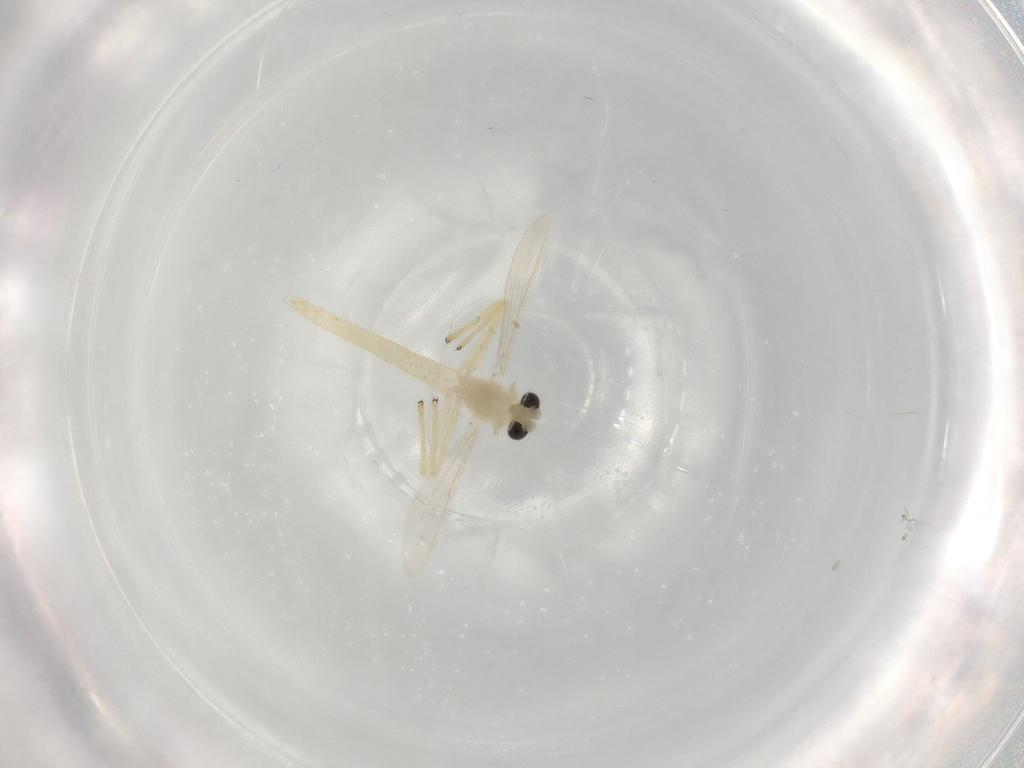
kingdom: Animalia
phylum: Arthropoda
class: Insecta
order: Diptera
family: Chironomidae
